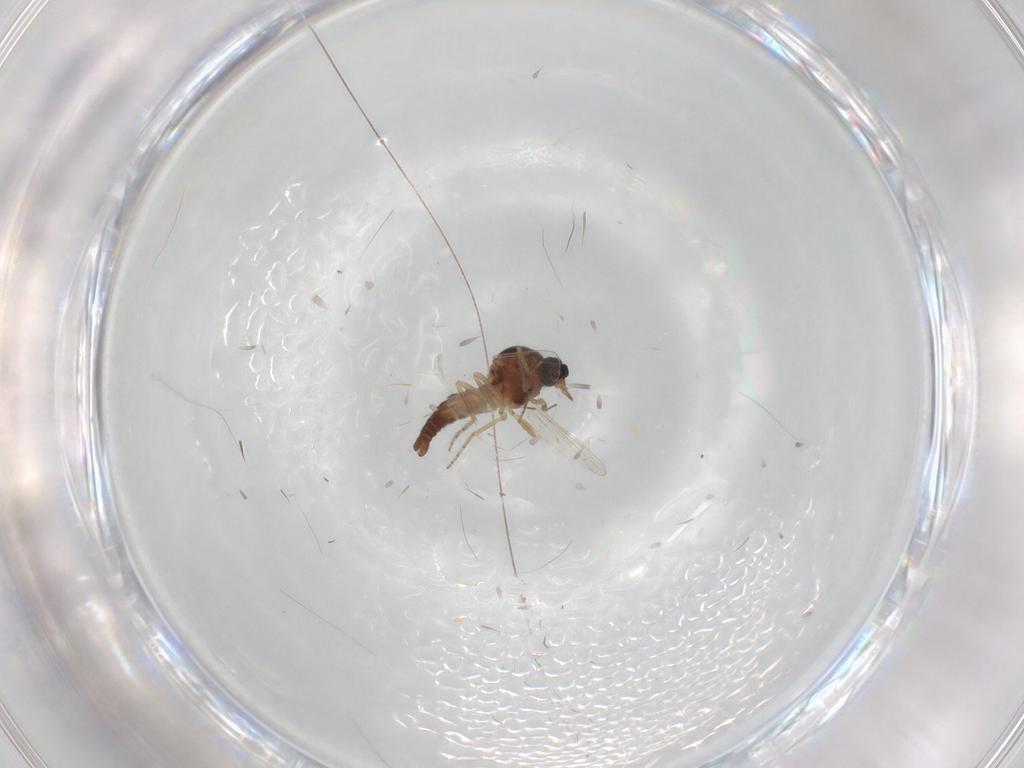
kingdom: Animalia
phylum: Arthropoda
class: Insecta
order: Diptera
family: Ceratopogonidae
